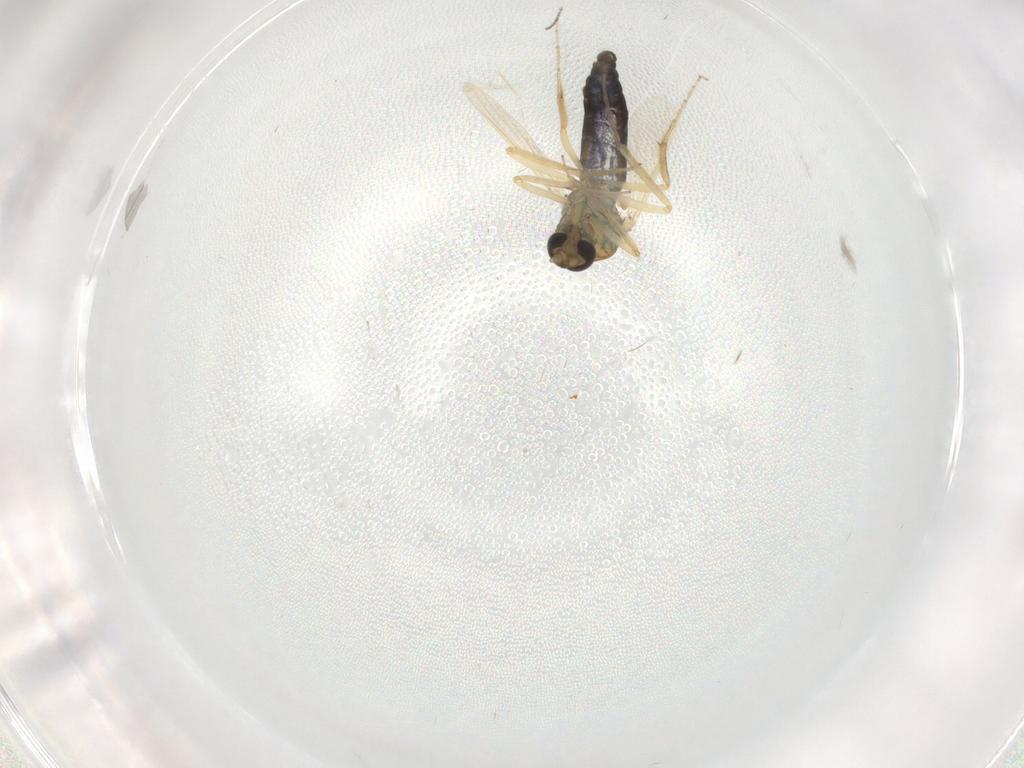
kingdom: Animalia
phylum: Arthropoda
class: Insecta
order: Diptera
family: Ceratopogonidae
